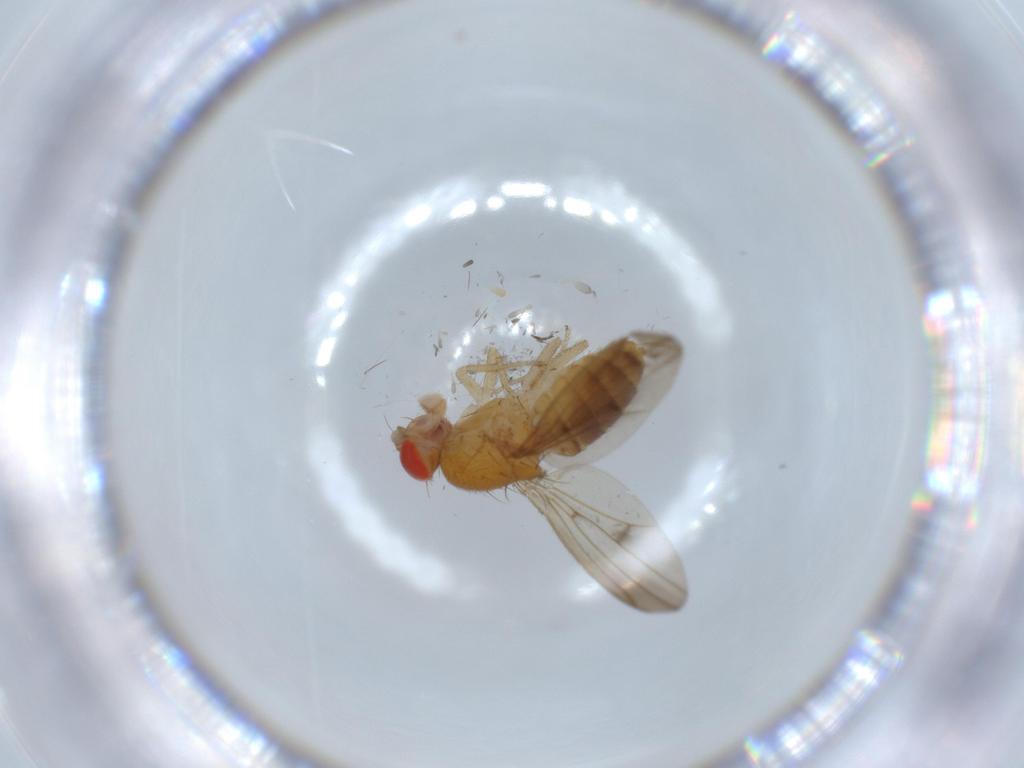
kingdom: Animalia
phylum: Arthropoda
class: Insecta
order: Diptera
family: Drosophilidae
